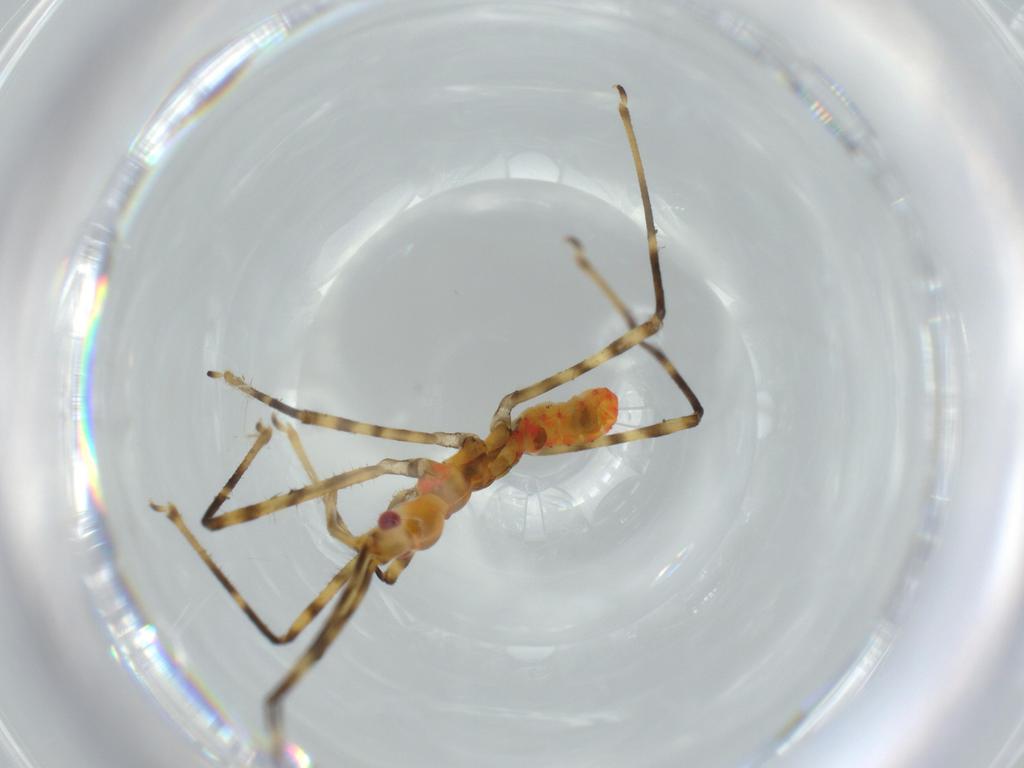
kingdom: Animalia
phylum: Arthropoda
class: Insecta
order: Hemiptera
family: Reduviidae
